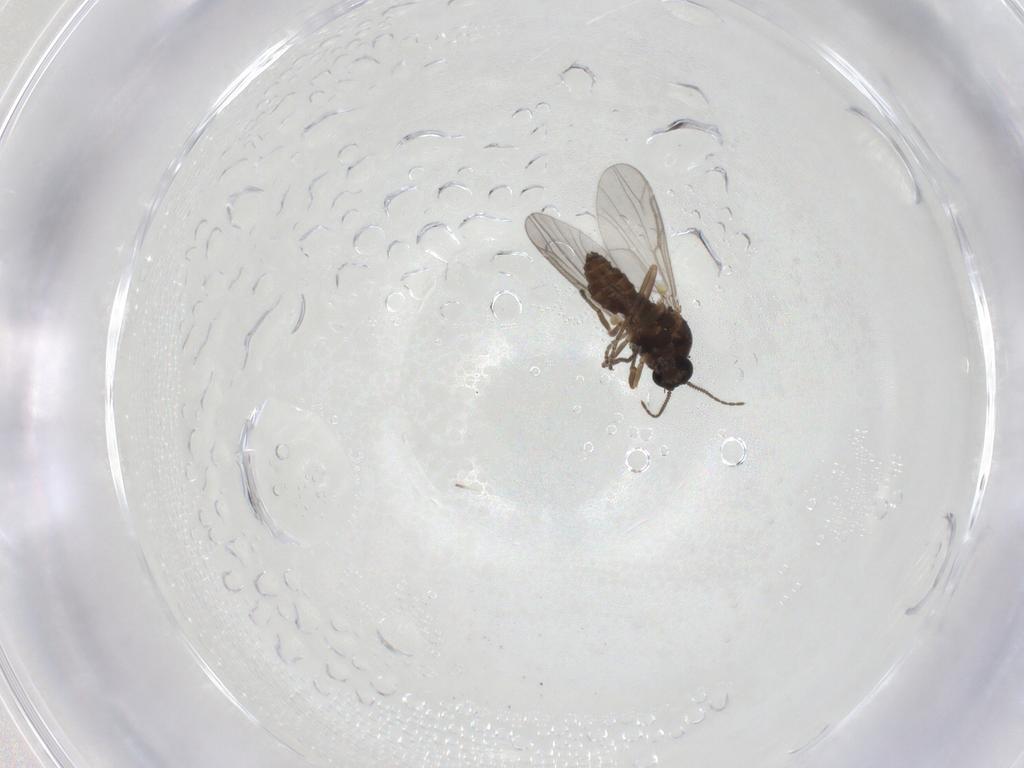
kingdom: Animalia
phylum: Arthropoda
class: Insecta
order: Diptera
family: Ceratopogonidae
